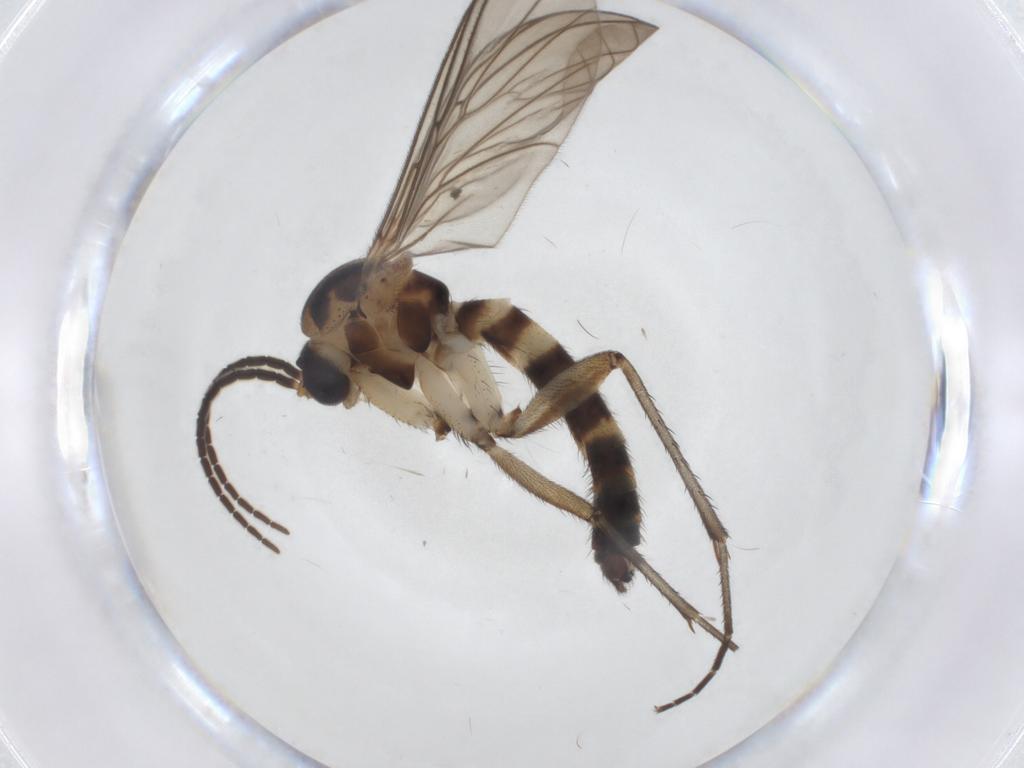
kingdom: Animalia
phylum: Arthropoda
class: Insecta
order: Diptera
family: Mycetophilidae
